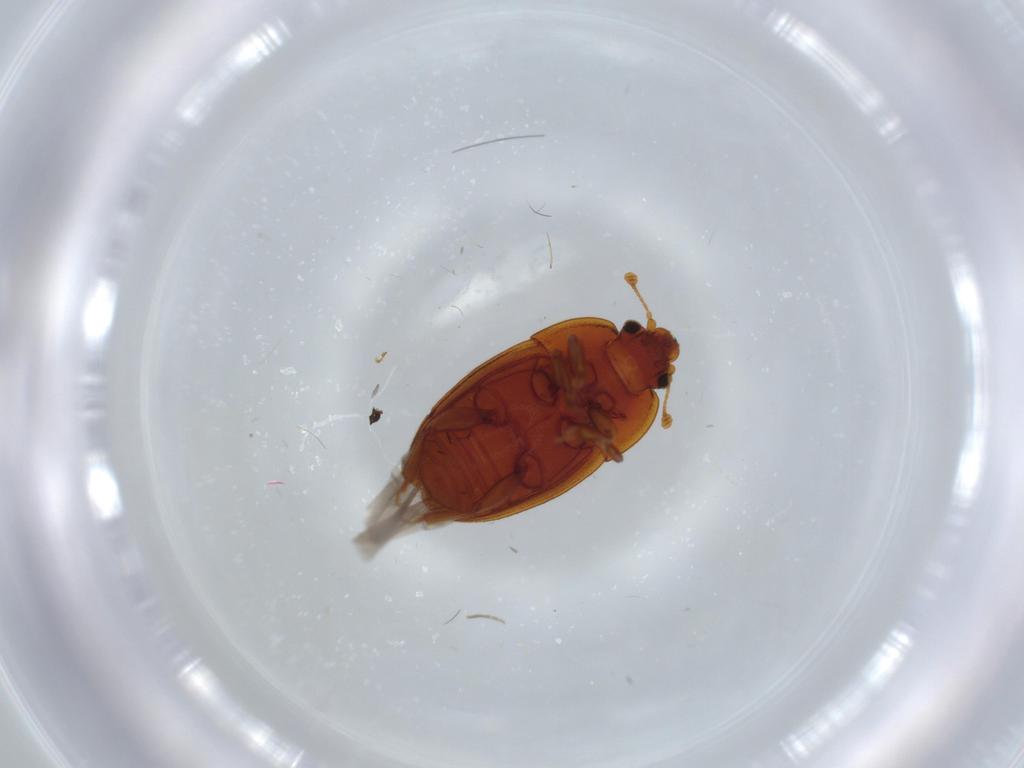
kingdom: Animalia
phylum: Arthropoda
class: Insecta
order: Coleoptera
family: Nitidulidae
